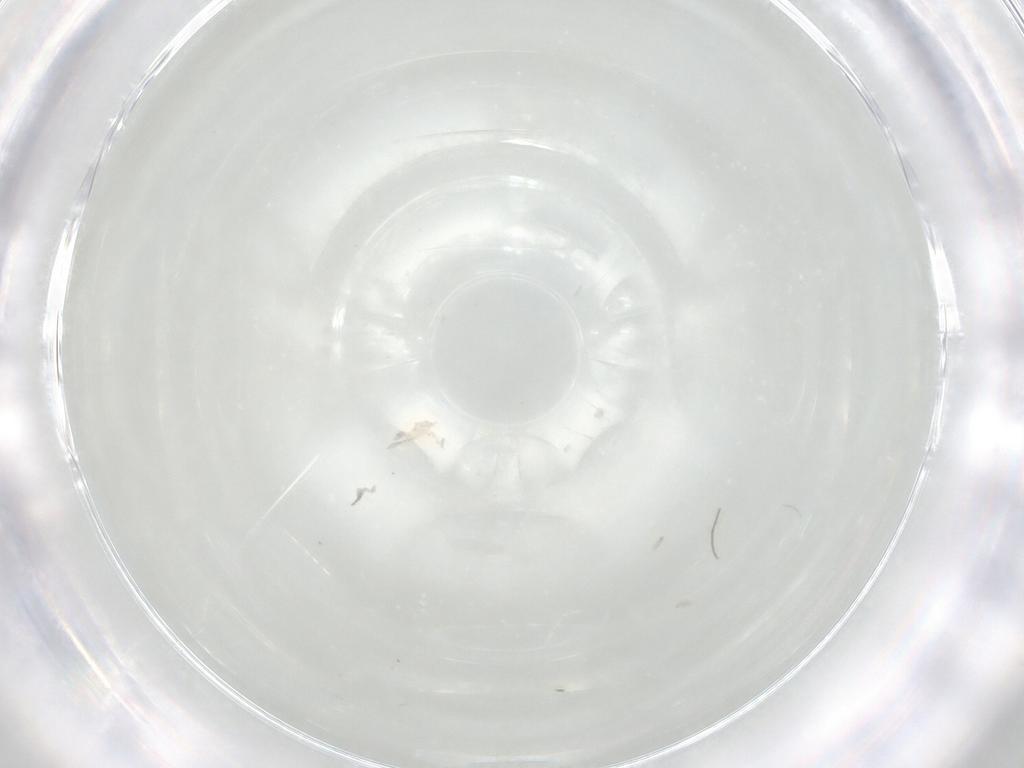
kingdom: Animalia
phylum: Arthropoda
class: Collembola
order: Entomobryomorpha
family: Isotomidae
